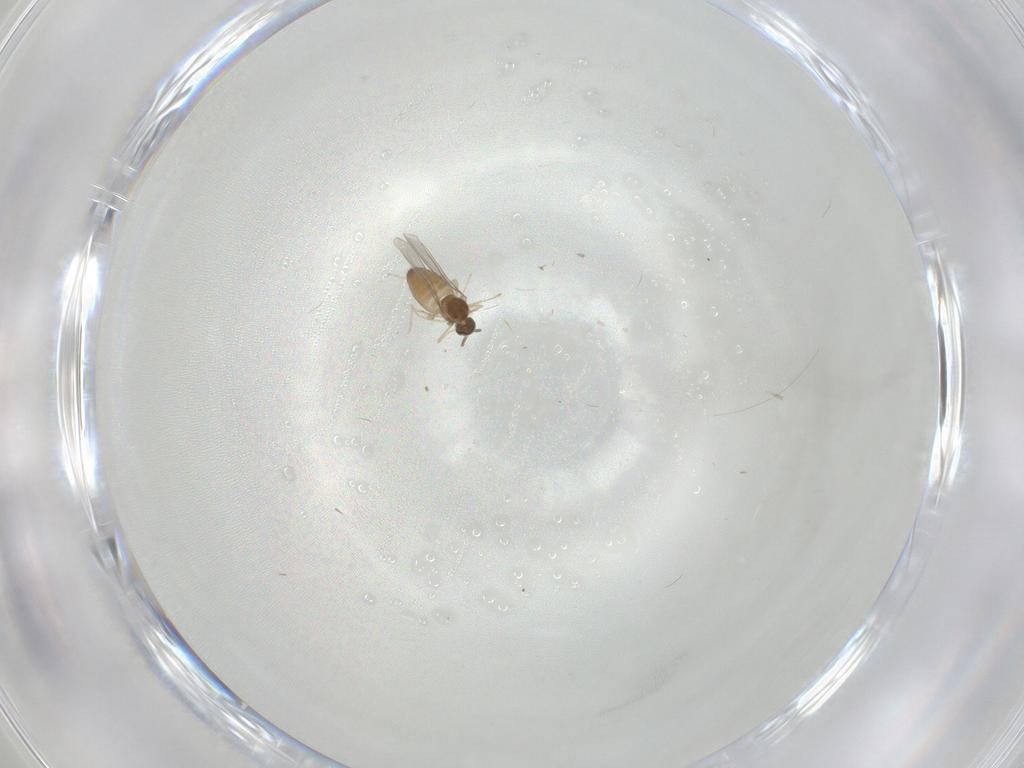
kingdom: Animalia
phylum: Arthropoda
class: Insecta
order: Diptera
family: Cecidomyiidae
